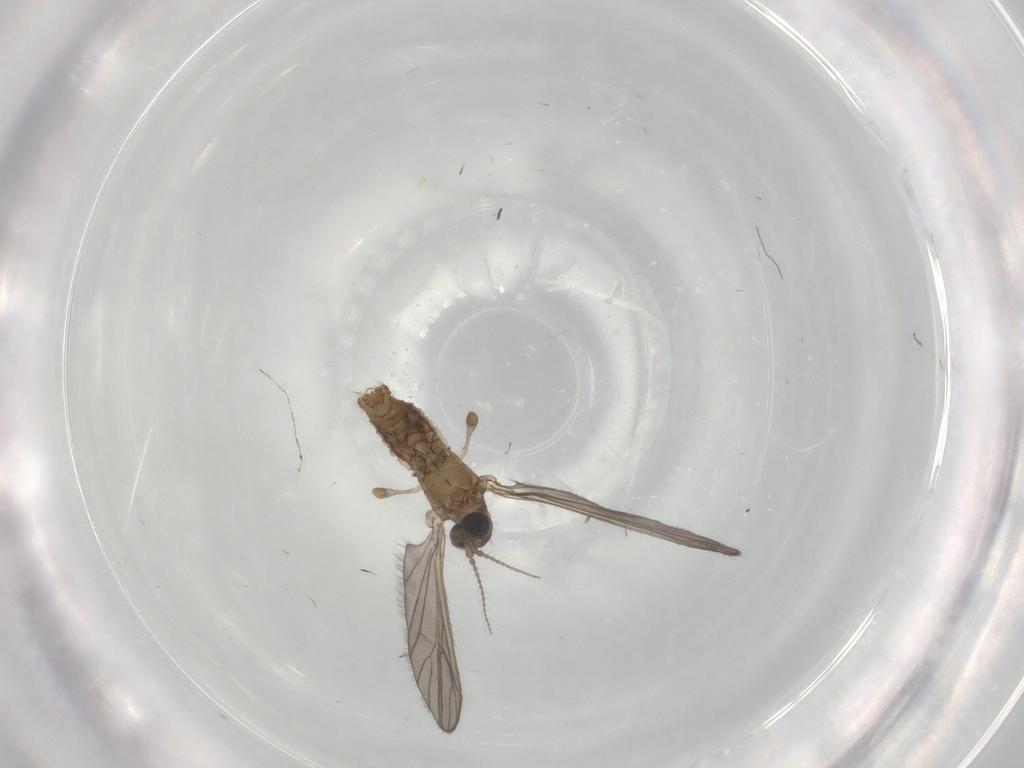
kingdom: Animalia
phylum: Arthropoda
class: Insecta
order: Diptera
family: Limoniidae
